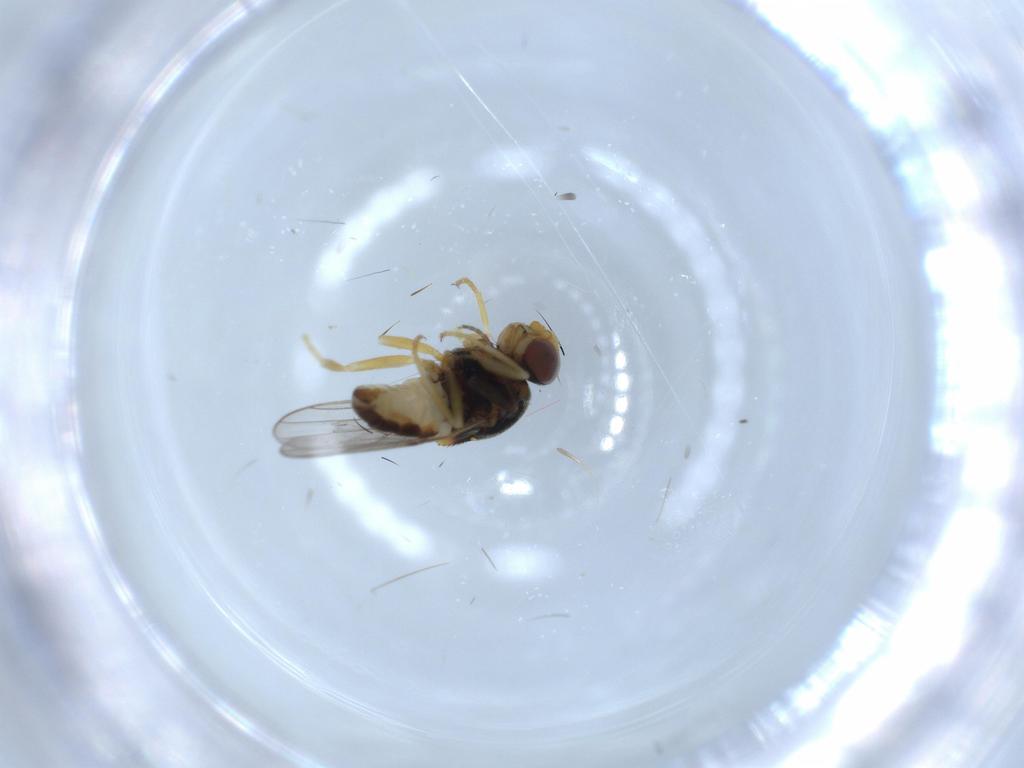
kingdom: Animalia
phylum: Arthropoda
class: Insecta
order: Diptera
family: Chloropidae
